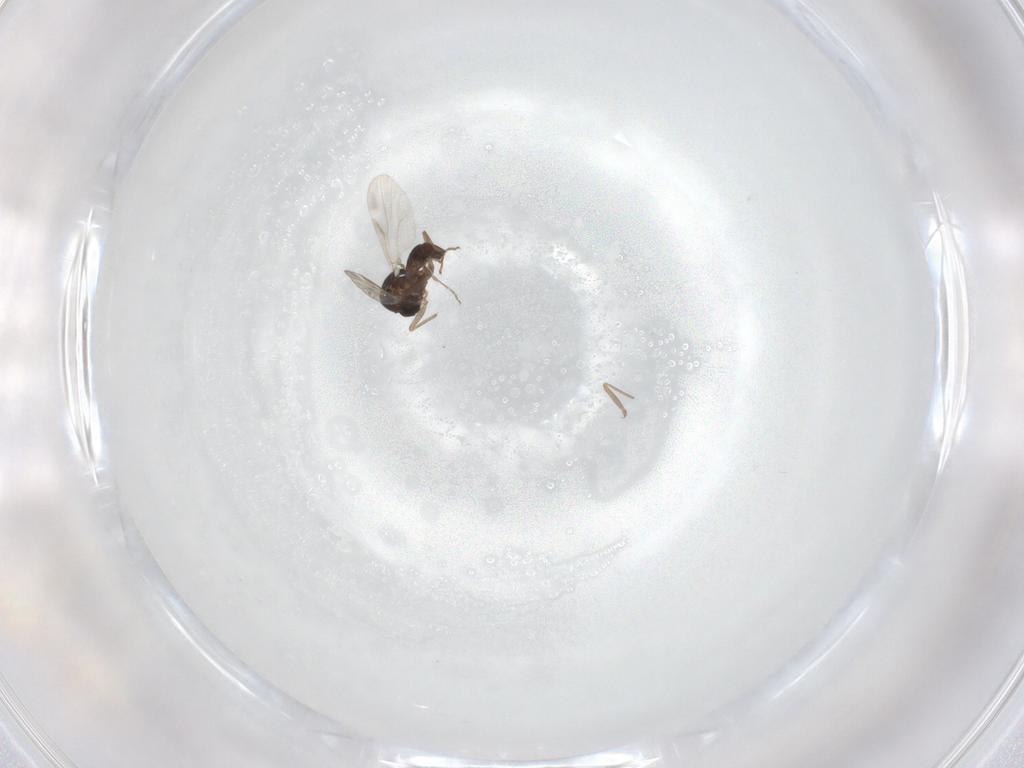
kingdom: Animalia
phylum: Arthropoda
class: Insecta
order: Diptera
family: Ceratopogonidae
